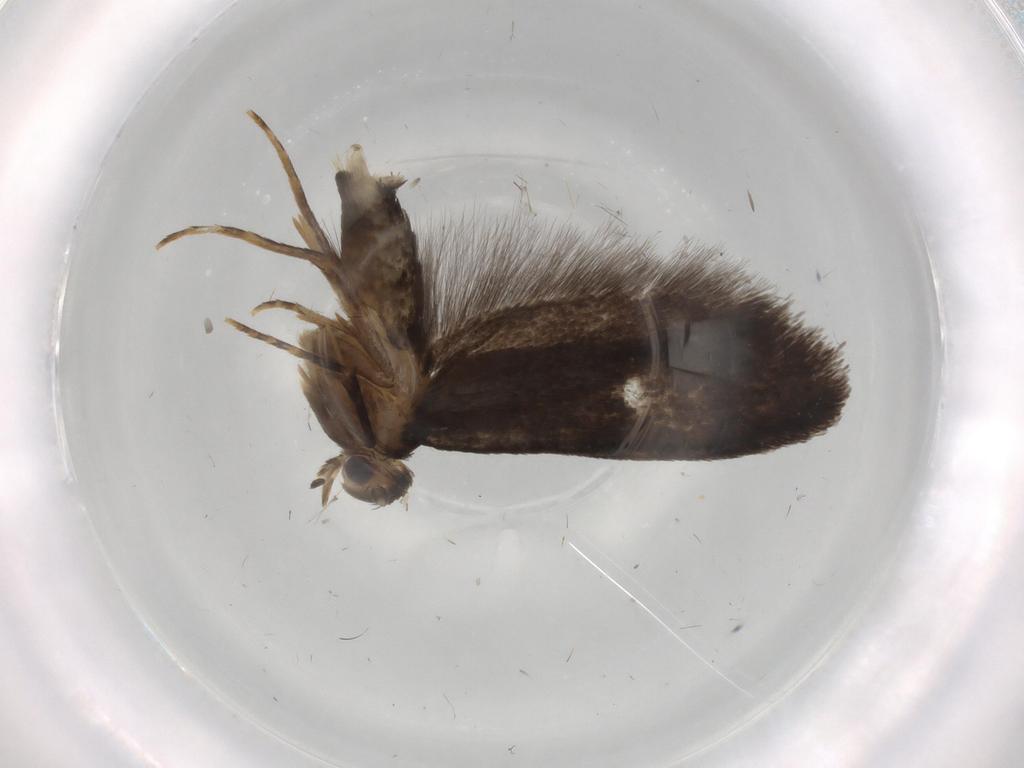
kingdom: Animalia
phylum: Arthropoda
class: Insecta
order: Lepidoptera
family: Tineidae
